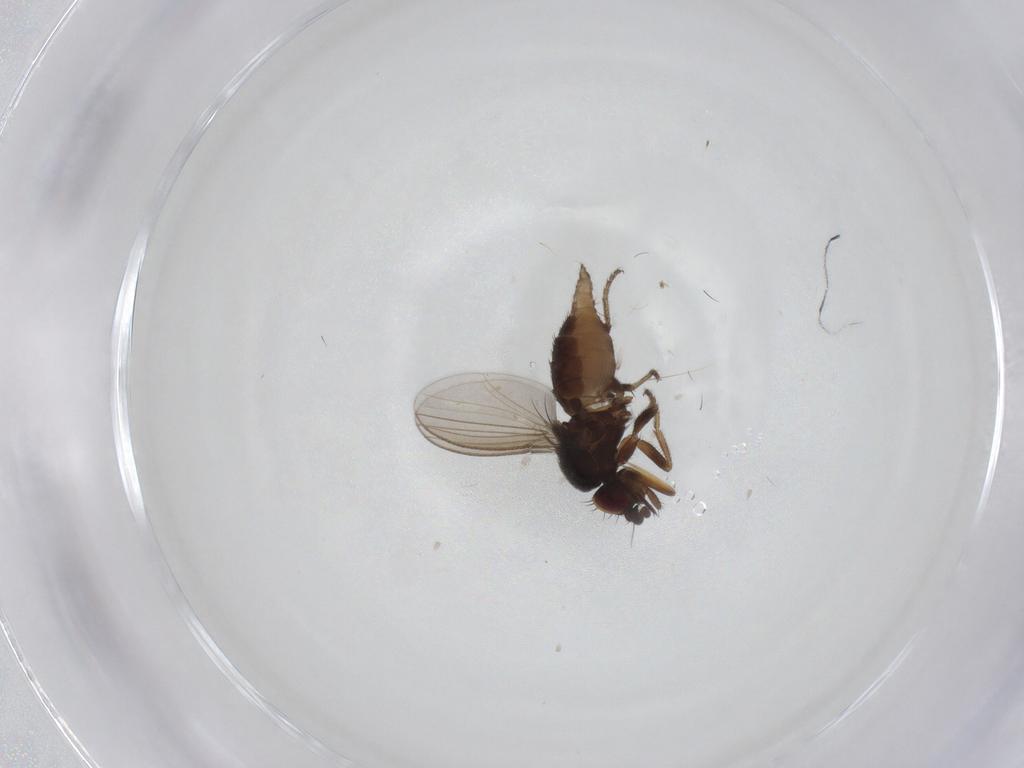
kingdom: Animalia
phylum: Arthropoda
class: Insecta
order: Diptera
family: Milichiidae
